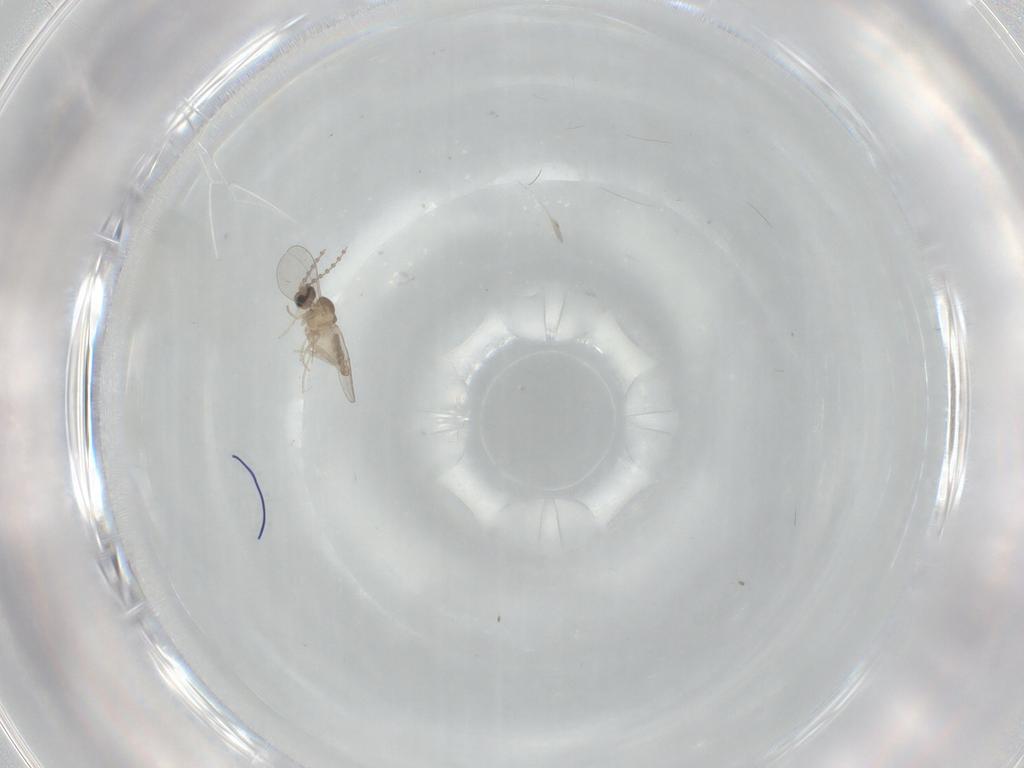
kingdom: Animalia
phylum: Arthropoda
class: Insecta
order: Diptera
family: Cecidomyiidae
